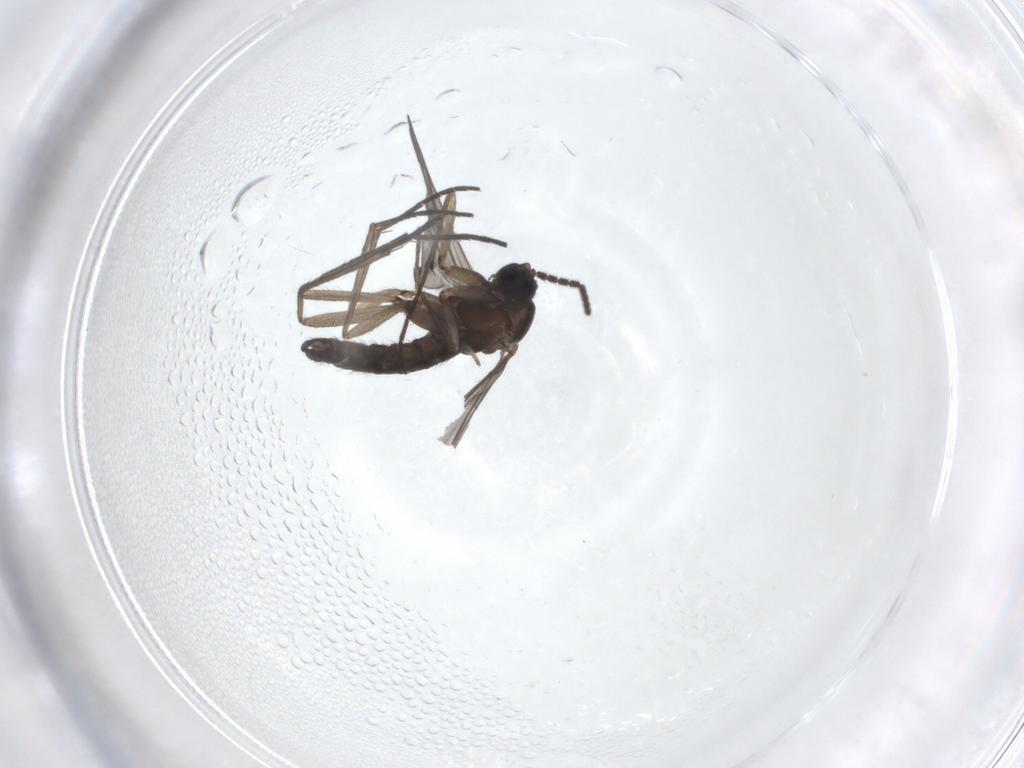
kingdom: Animalia
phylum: Arthropoda
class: Insecta
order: Diptera
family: Sciaridae
